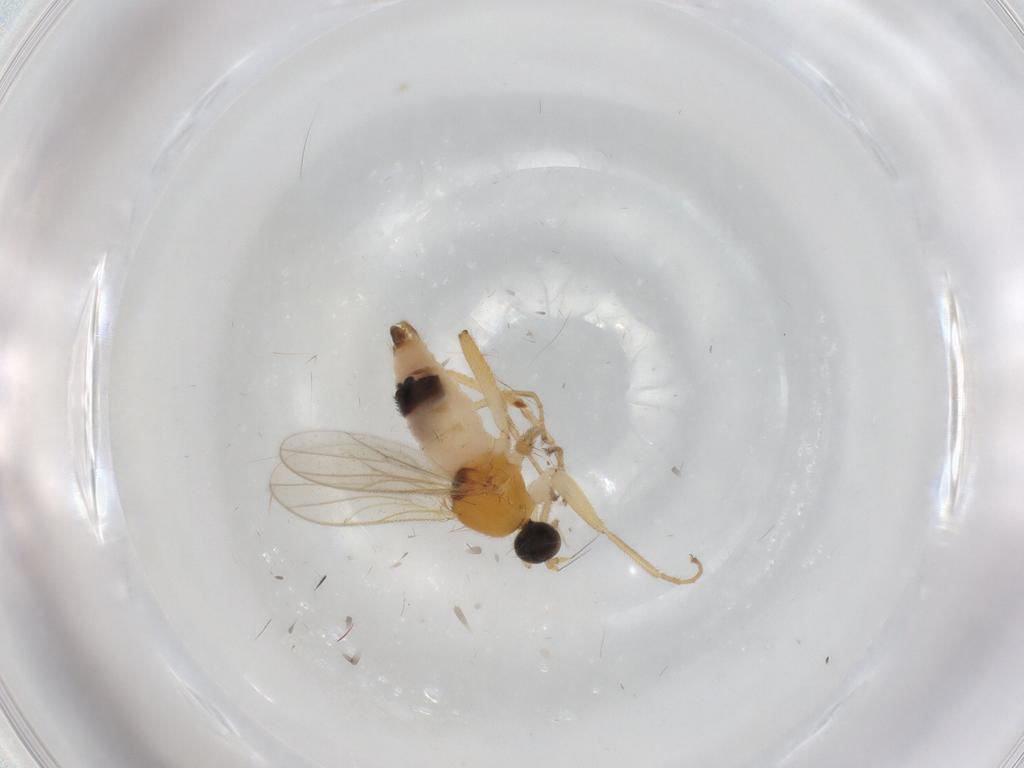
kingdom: Animalia
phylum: Arthropoda
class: Insecta
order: Diptera
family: Hybotidae
